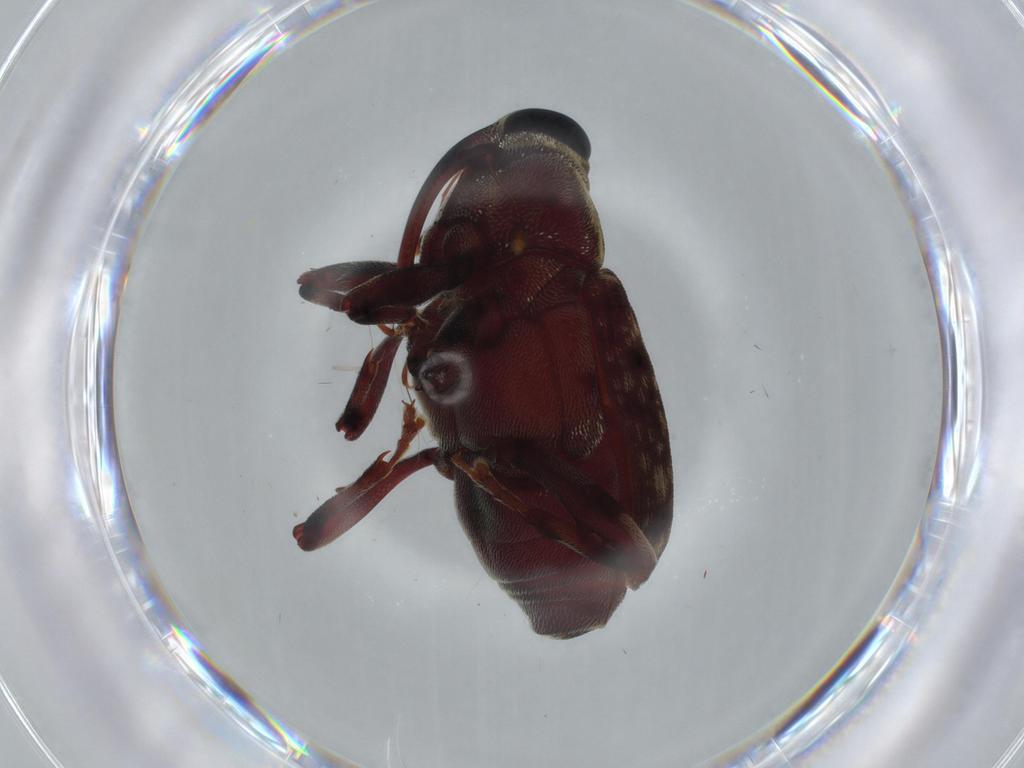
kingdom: Animalia
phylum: Arthropoda
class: Insecta
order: Coleoptera
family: Curculionidae
